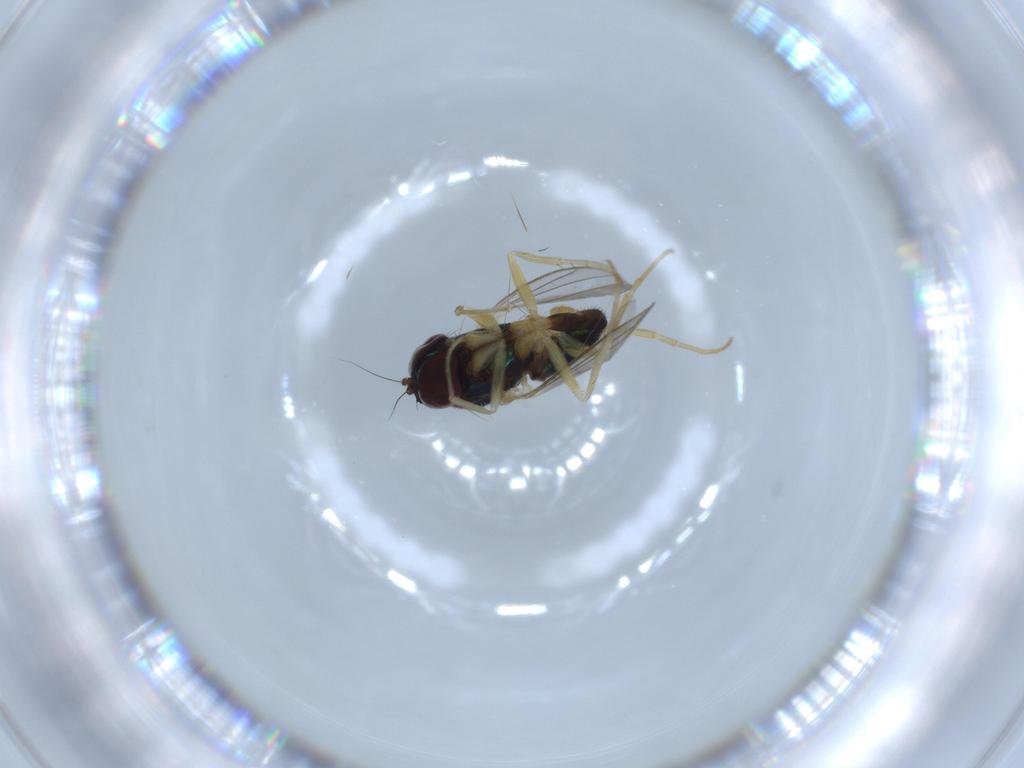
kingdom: Animalia
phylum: Arthropoda
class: Insecta
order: Diptera
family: Dolichopodidae
